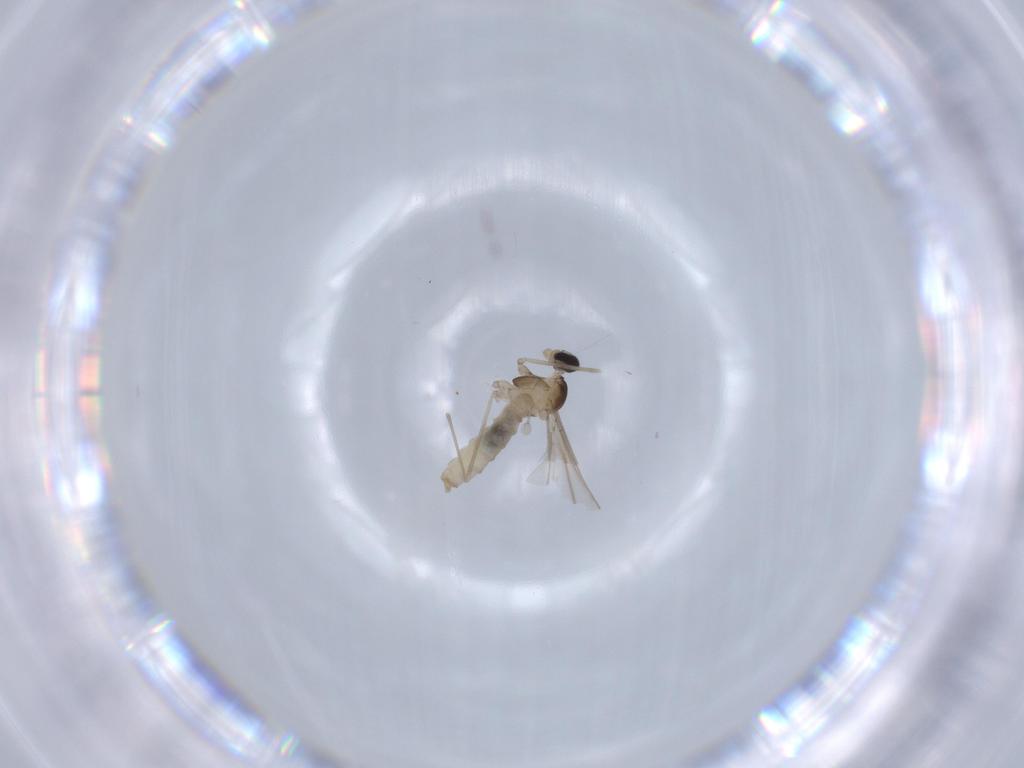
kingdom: Animalia
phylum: Arthropoda
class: Insecta
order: Diptera
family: Cecidomyiidae
